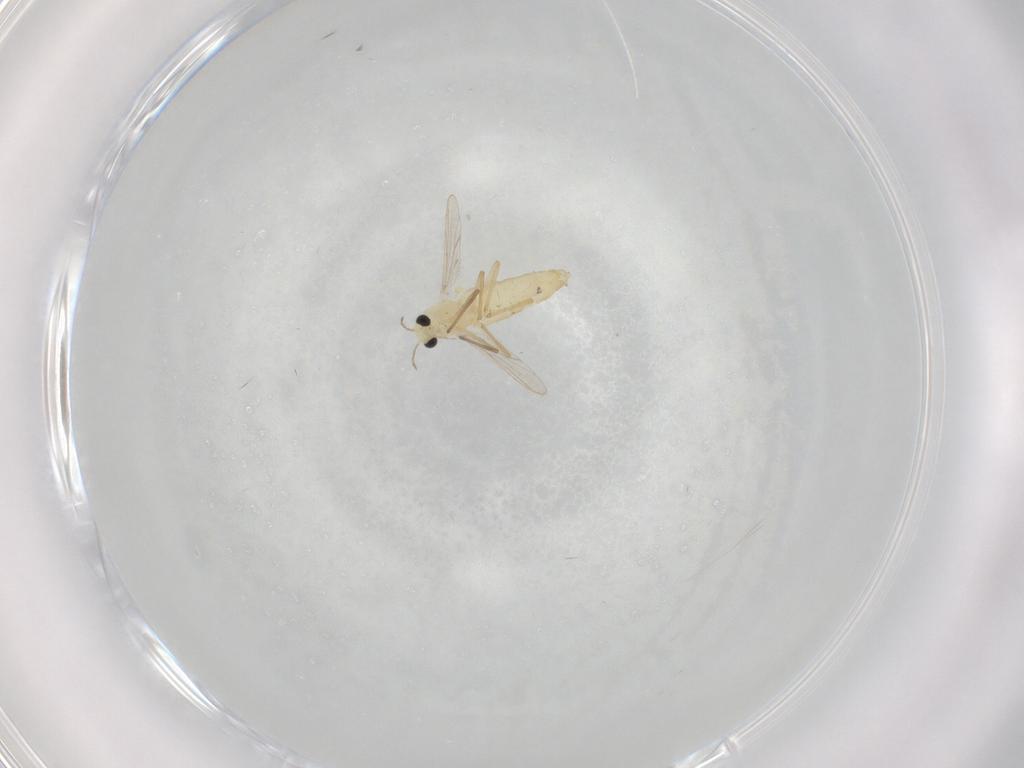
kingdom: Animalia
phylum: Arthropoda
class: Insecta
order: Diptera
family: Chironomidae
